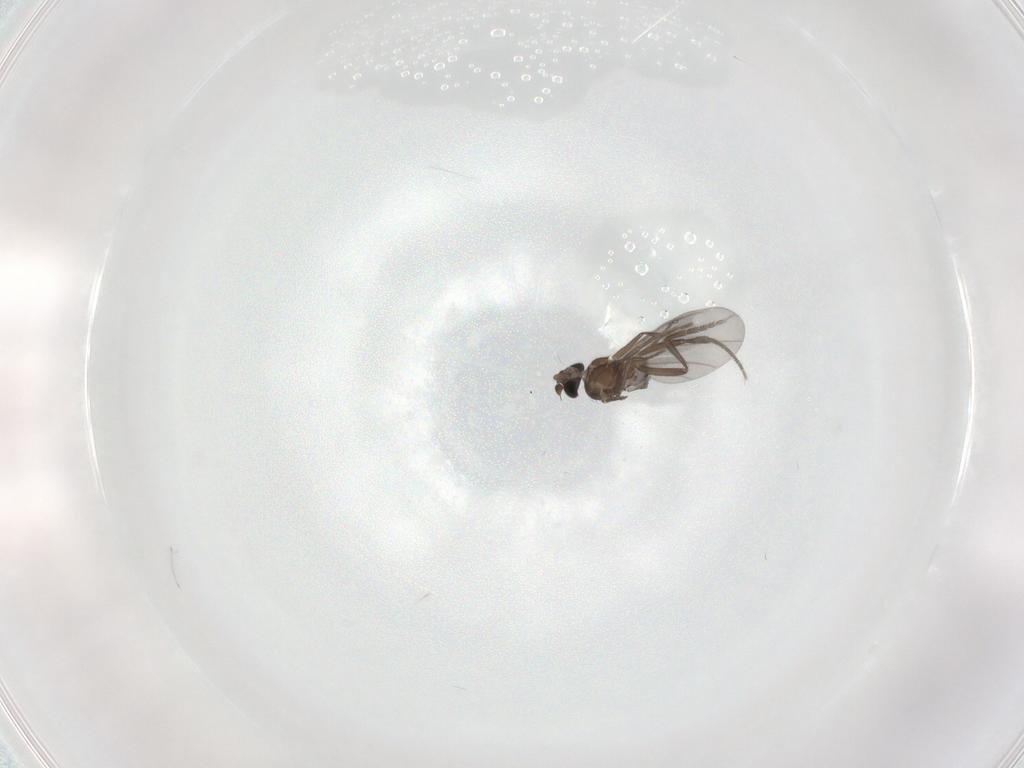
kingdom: Animalia
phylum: Arthropoda
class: Insecta
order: Diptera
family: Phoridae
